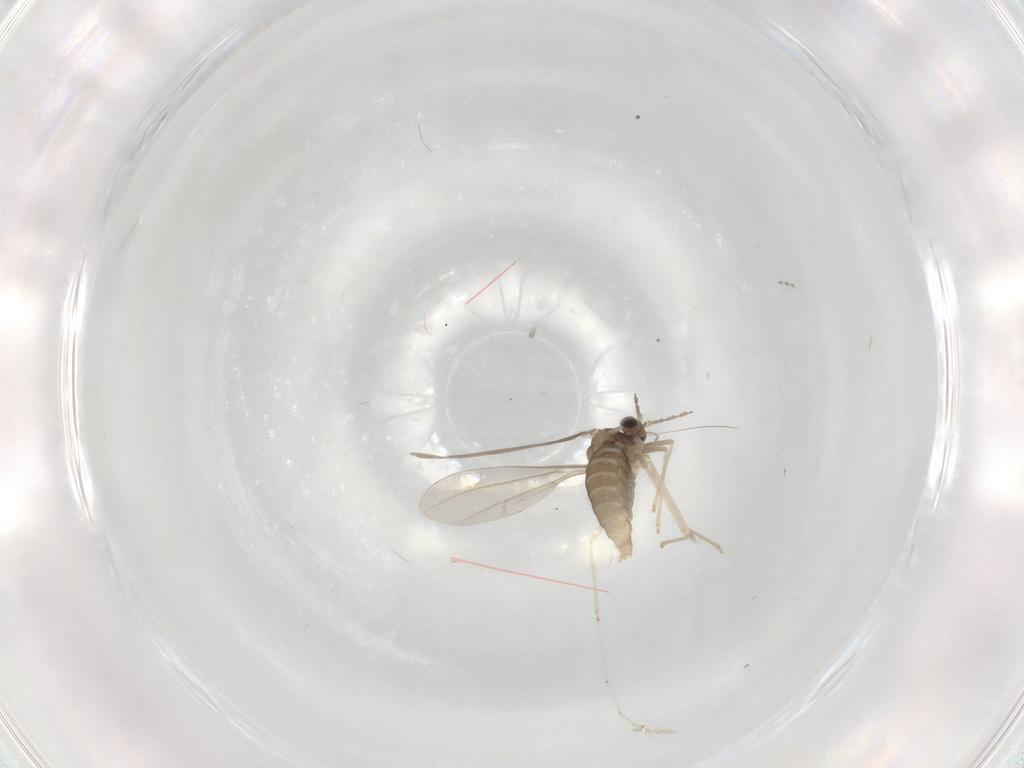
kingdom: Animalia
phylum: Arthropoda
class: Insecta
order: Diptera
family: Cecidomyiidae
